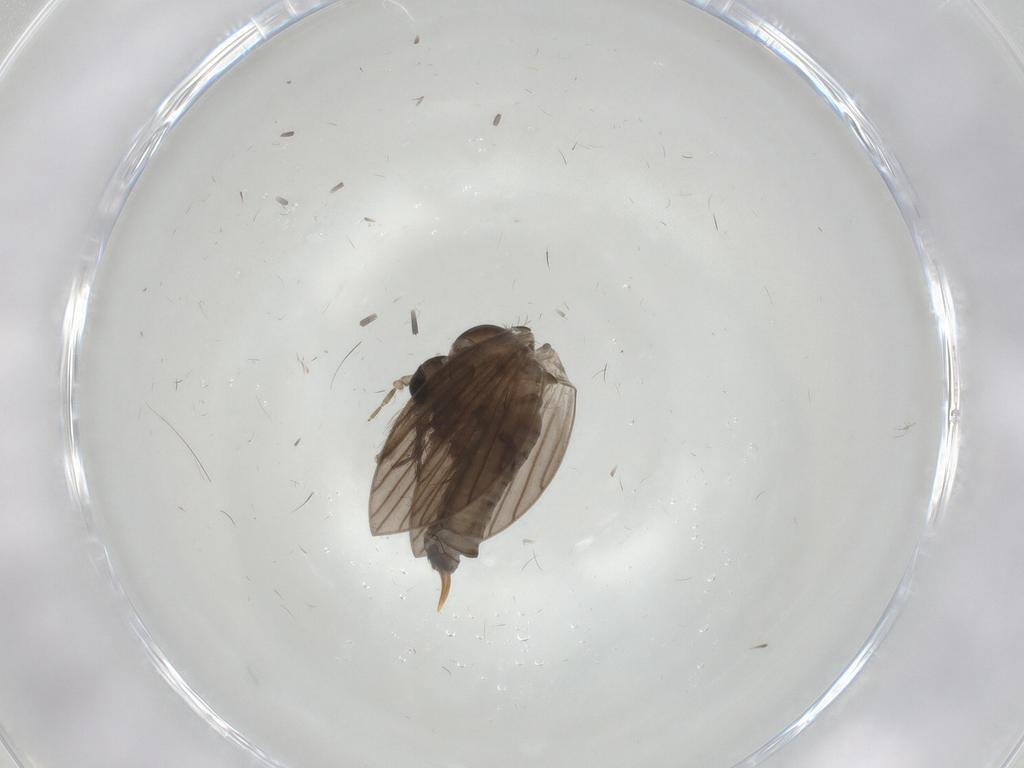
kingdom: Animalia
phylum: Arthropoda
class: Insecta
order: Diptera
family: Psychodidae
